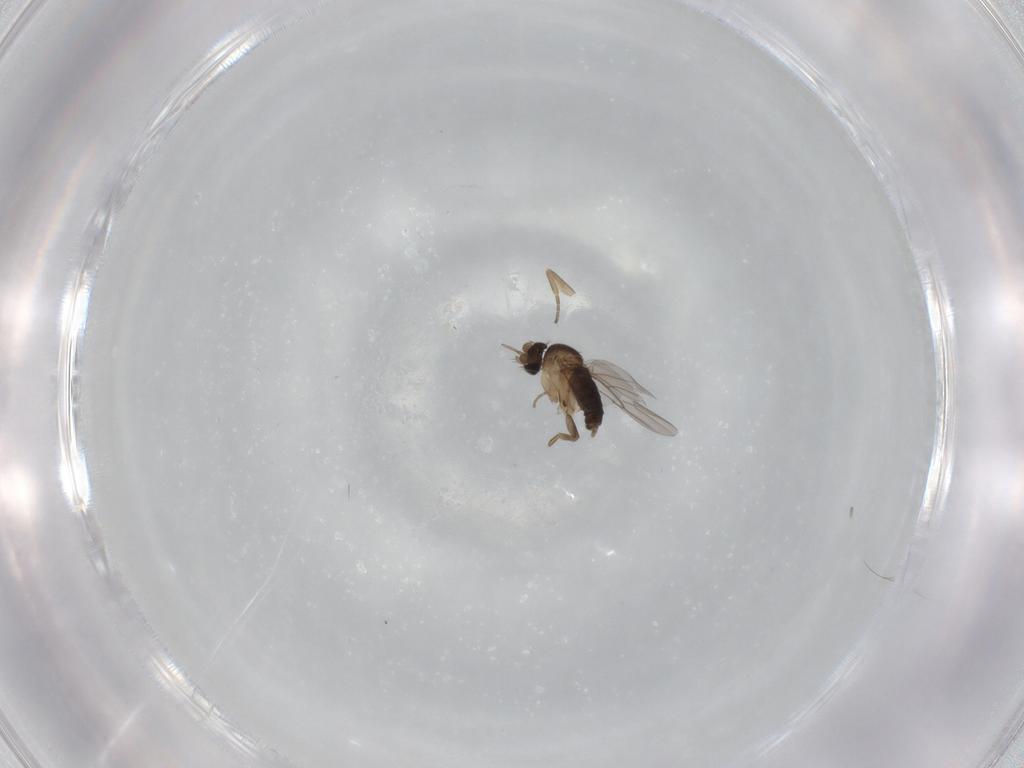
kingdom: Animalia
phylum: Arthropoda
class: Insecta
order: Diptera
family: Chironomidae
